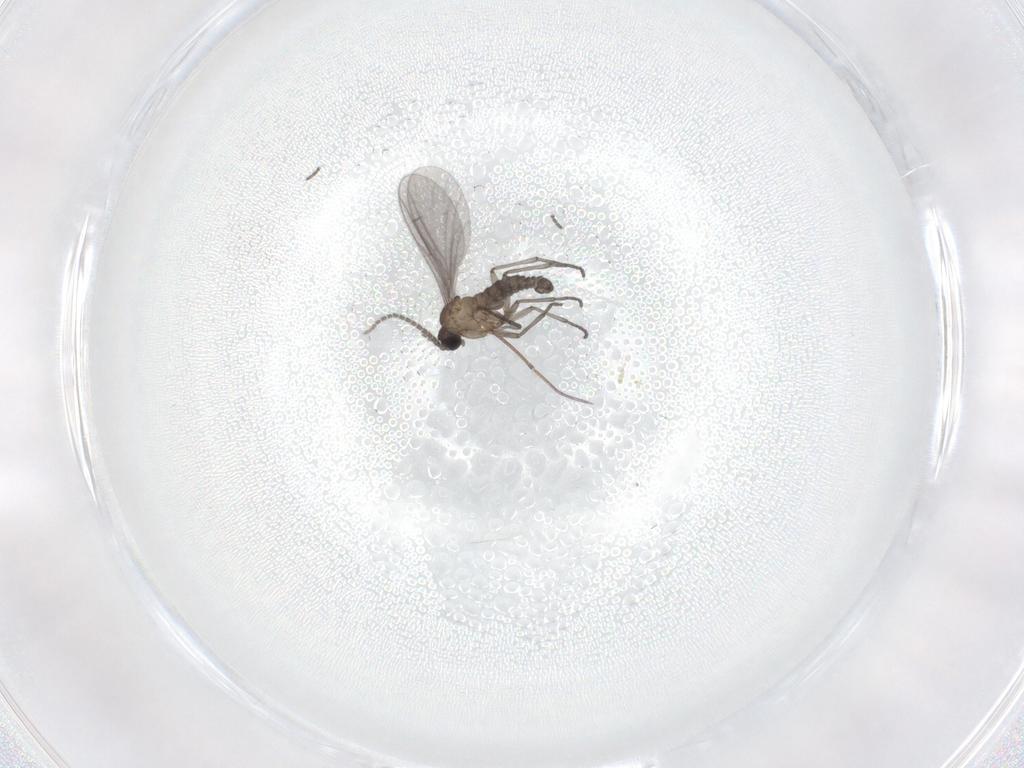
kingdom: Animalia
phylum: Arthropoda
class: Insecta
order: Diptera
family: Sciaridae
